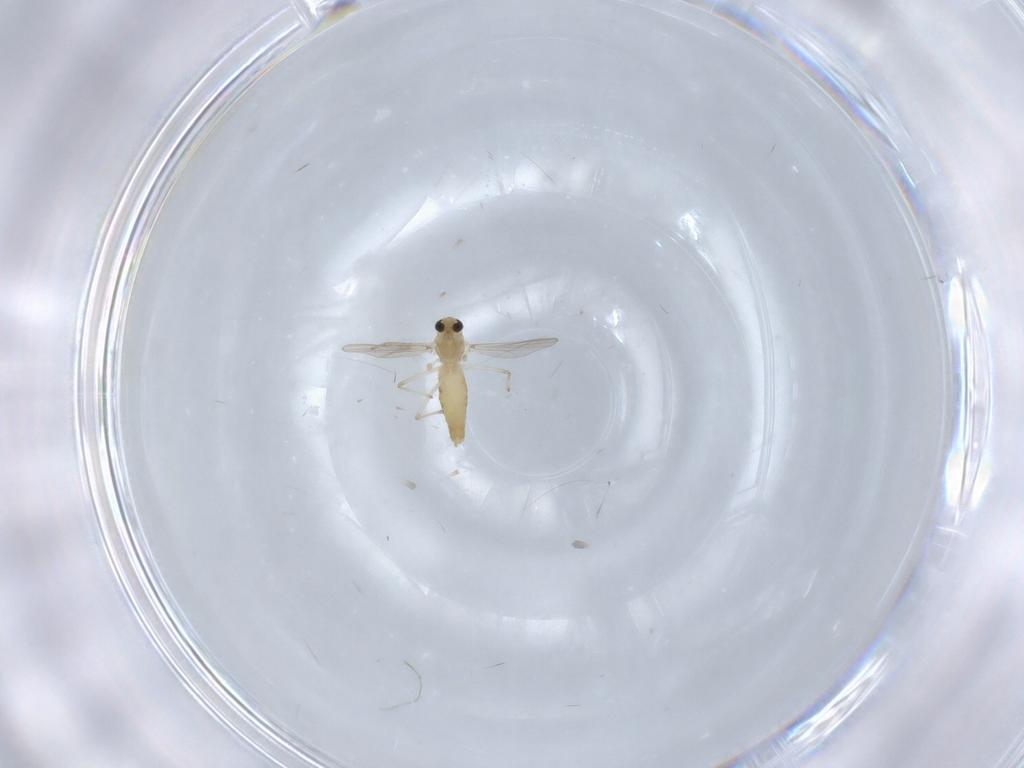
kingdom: Animalia
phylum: Arthropoda
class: Insecta
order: Diptera
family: Chironomidae
